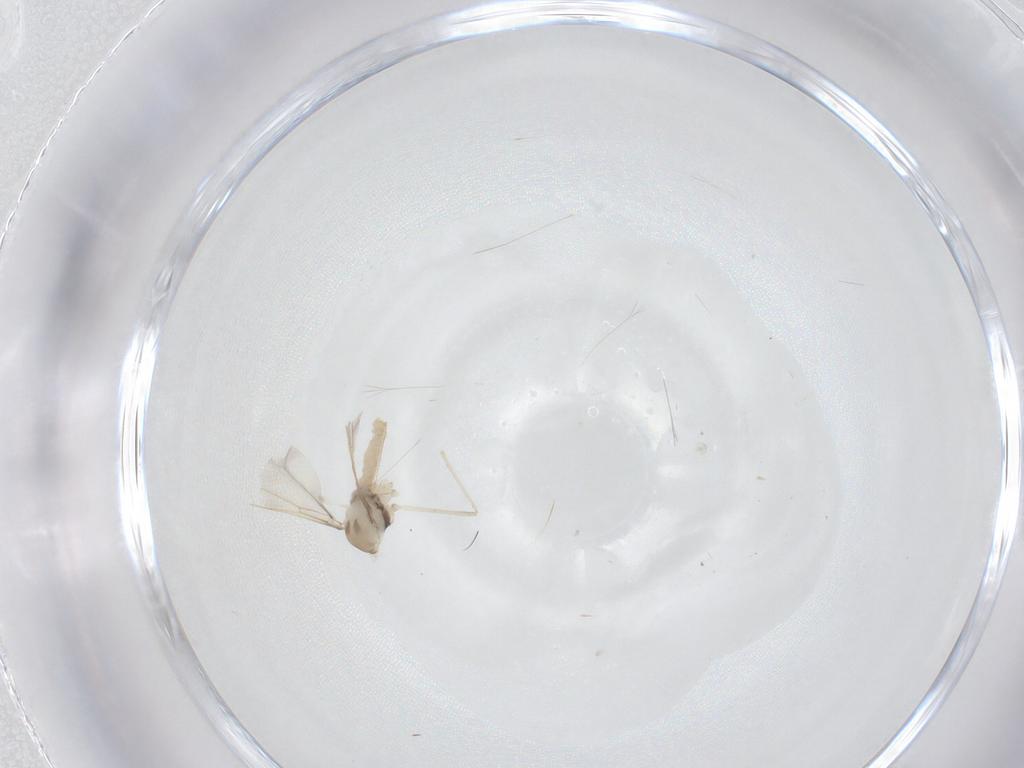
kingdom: Animalia
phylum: Arthropoda
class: Insecta
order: Diptera
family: Cecidomyiidae
